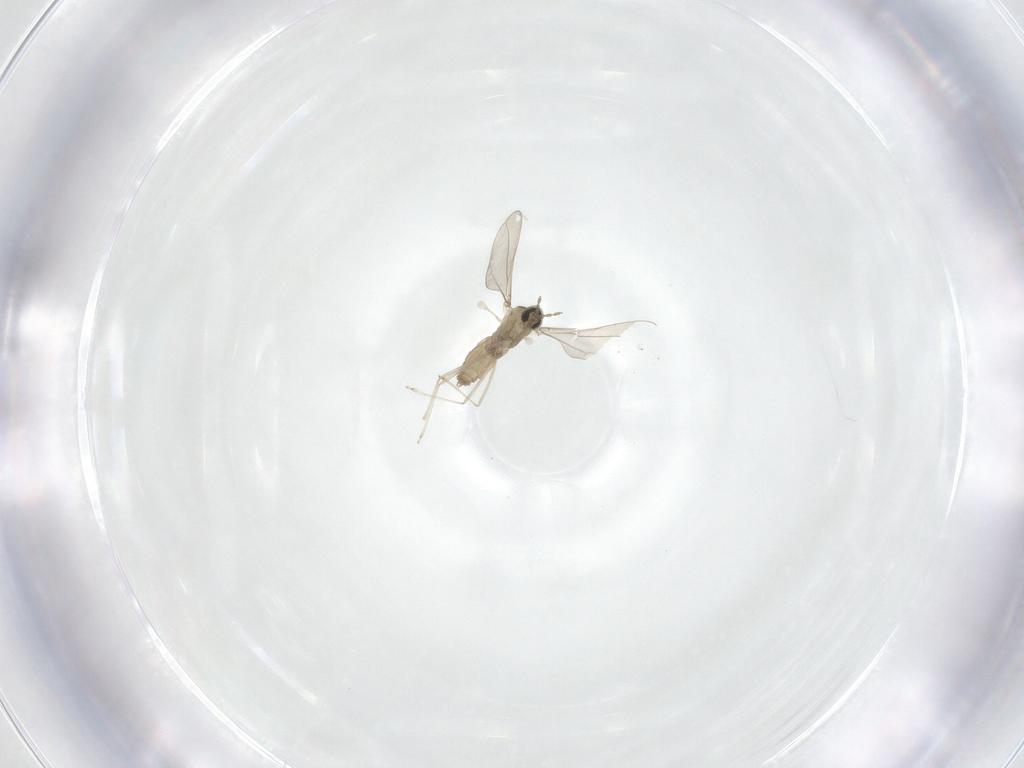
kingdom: Animalia
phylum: Arthropoda
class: Insecta
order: Diptera
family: Cecidomyiidae
